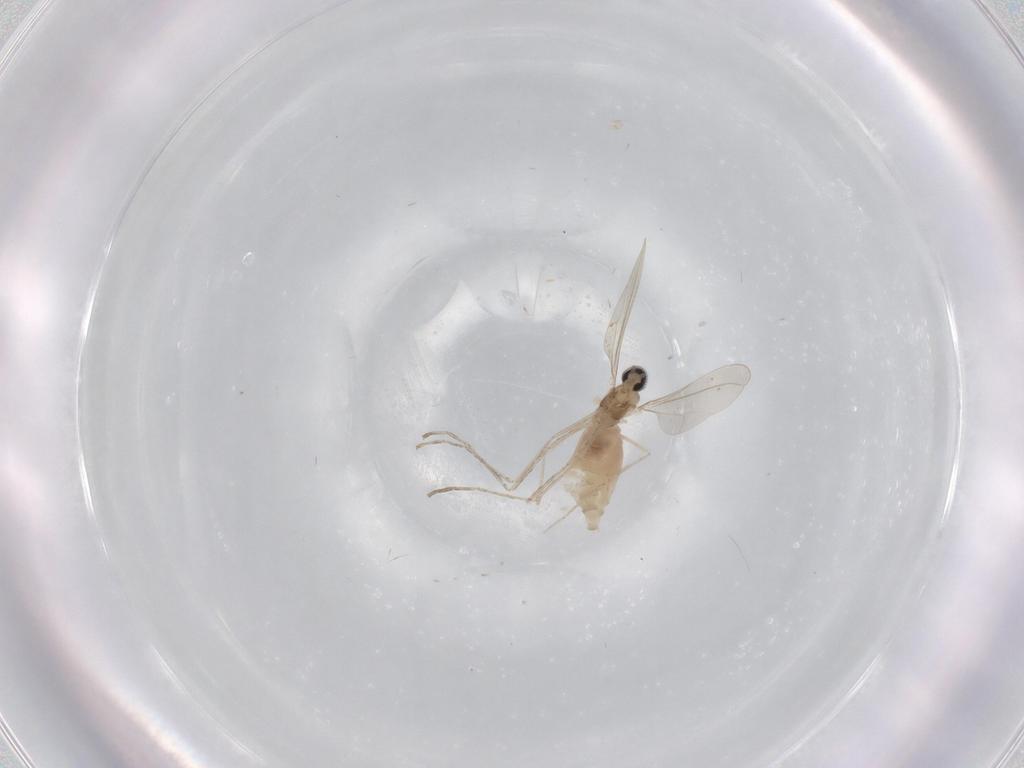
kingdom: Animalia
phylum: Arthropoda
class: Insecta
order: Diptera
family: Cecidomyiidae
